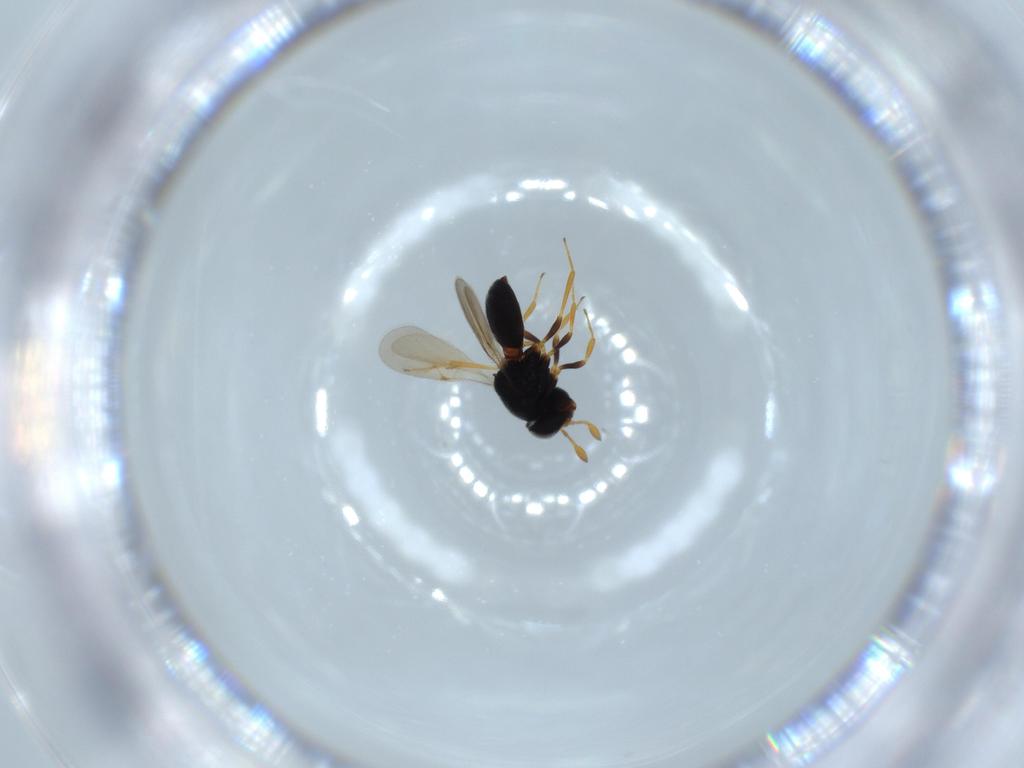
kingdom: Animalia
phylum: Arthropoda
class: Insecta
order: Hymenoptera
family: Scelionidae
